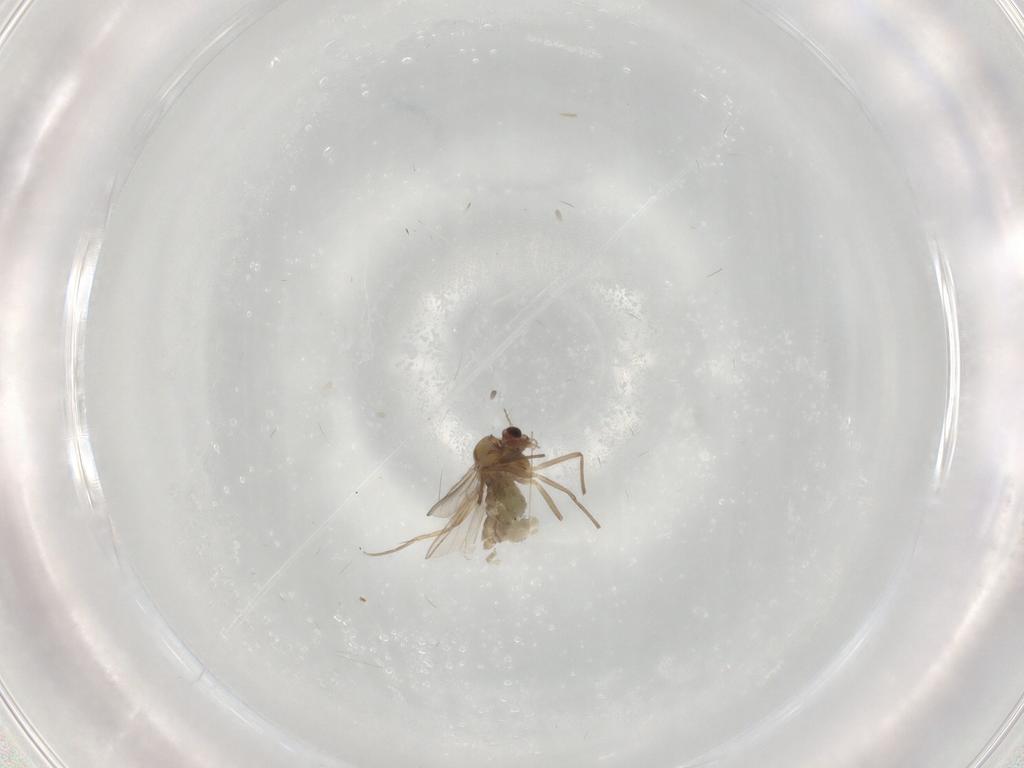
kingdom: Animalia
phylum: Arthropoda
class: Insecta
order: Diptera
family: Chironomidae
